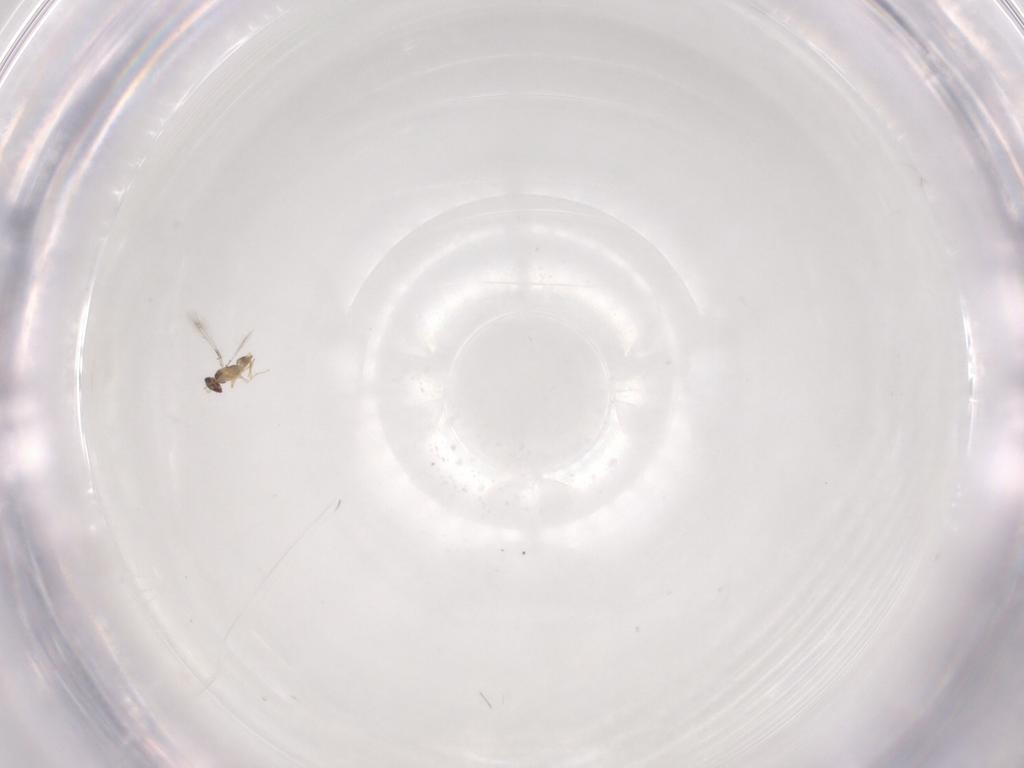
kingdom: Animalia
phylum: Arthropoda
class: Insecta
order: Hymenoptera
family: Mymaridae
